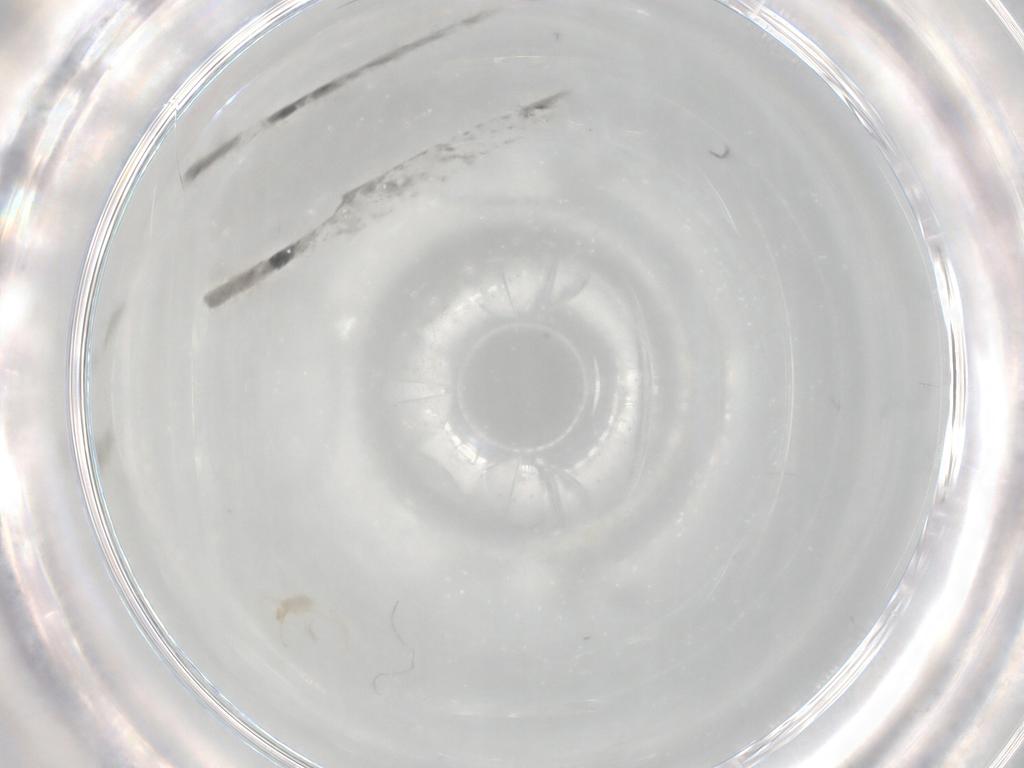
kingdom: Animalia
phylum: Arthropoda
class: Arachnida
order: Trombidiformes
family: Erythraeidae
